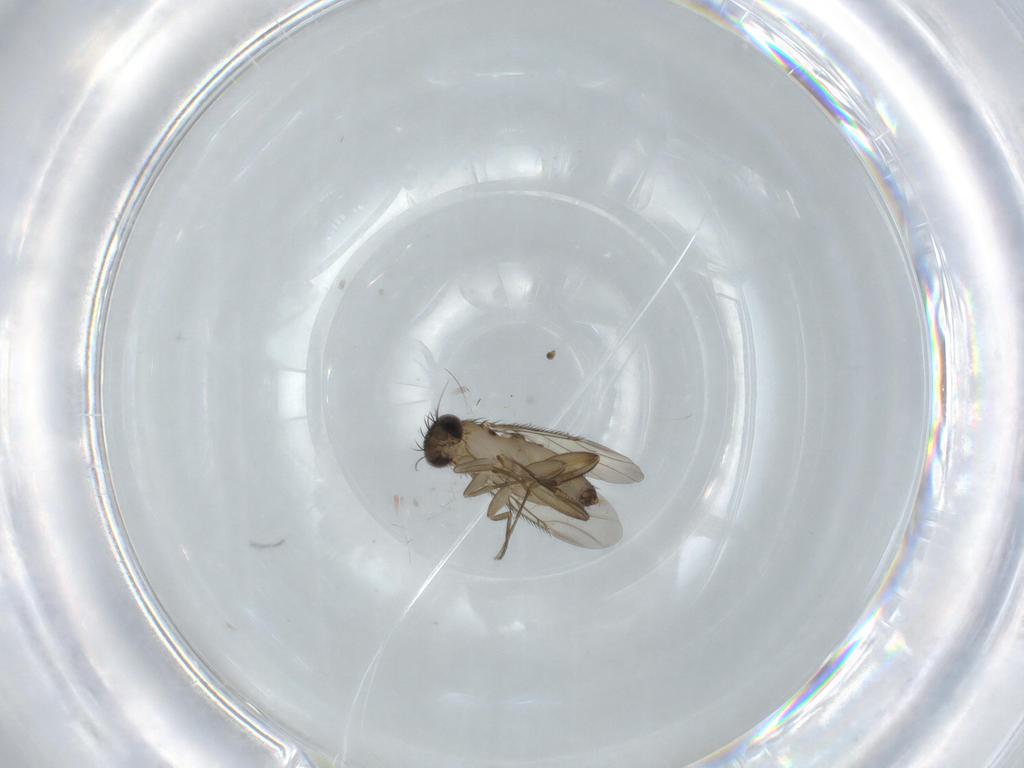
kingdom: Animalia
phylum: Arthropoda
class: Insecta
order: Diptera
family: Phoridae
